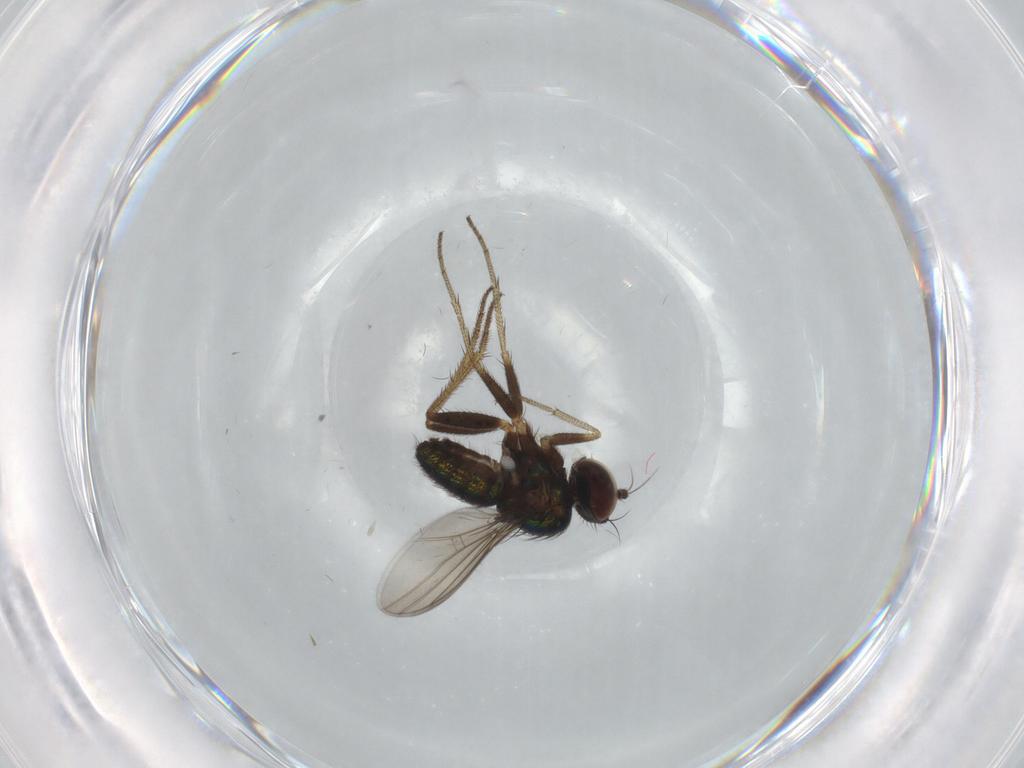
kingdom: Animalia
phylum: Arthropoda
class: Insecta
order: Diptera
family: Dolichopodidae
